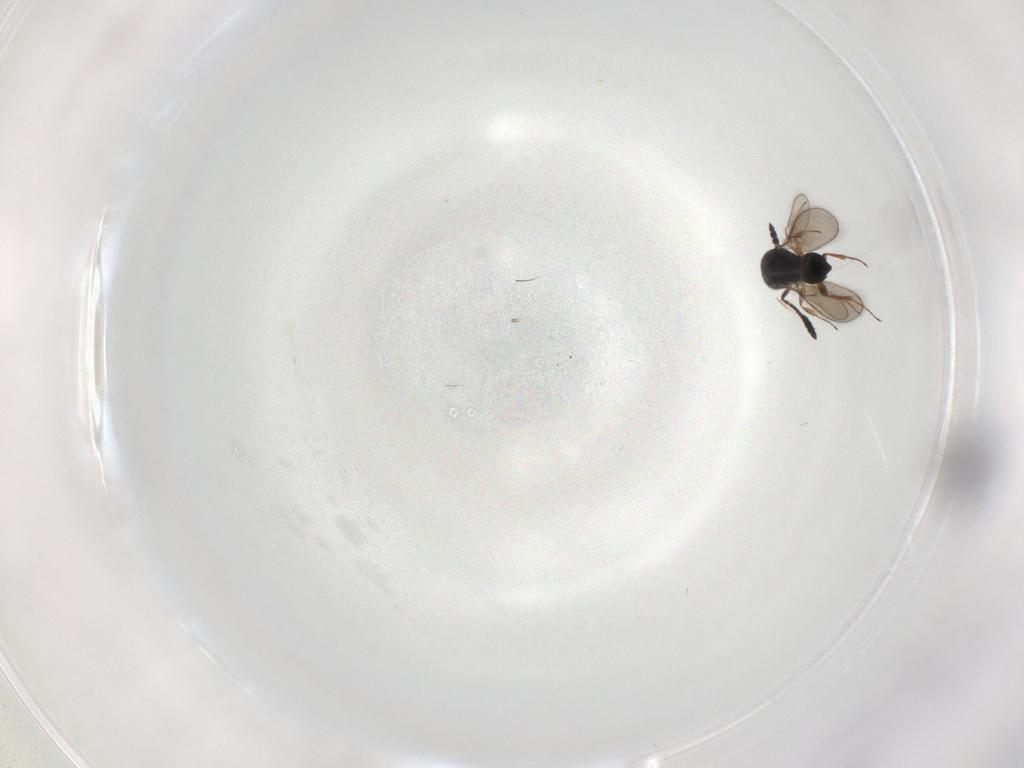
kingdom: Animalia
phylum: Arthropoda
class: Insecta
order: Hymenoptera
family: Scelionidae
